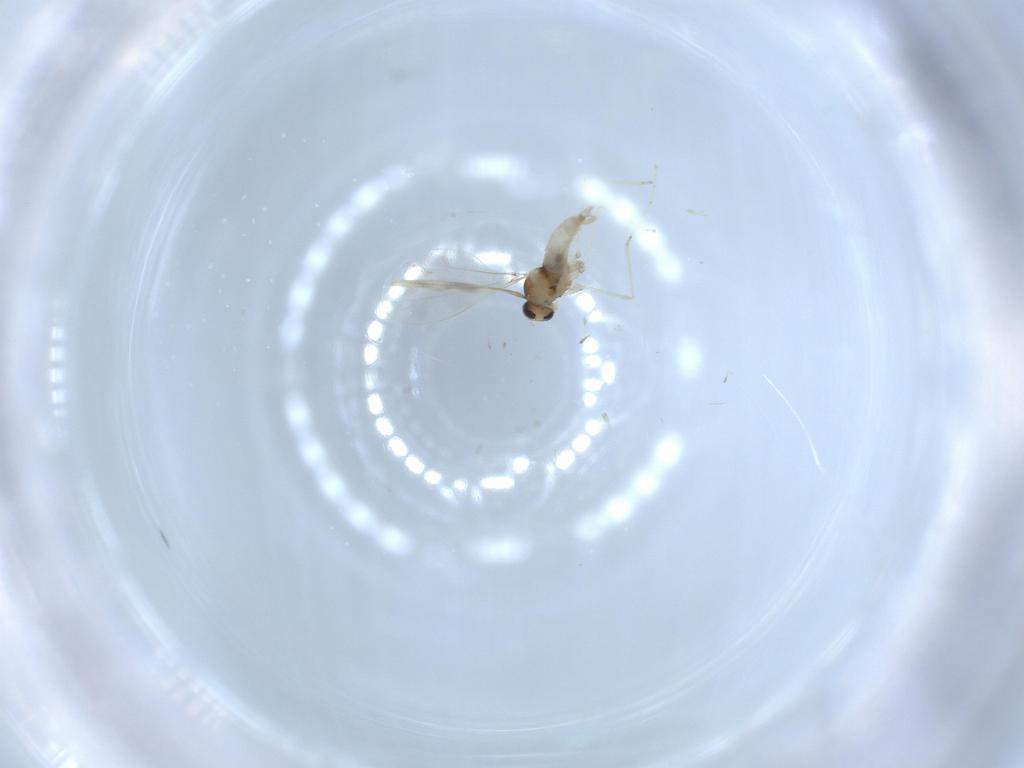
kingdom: Animalia
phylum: Arthropoda
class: Insecta
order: Diptera
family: Cecidomyiidae
